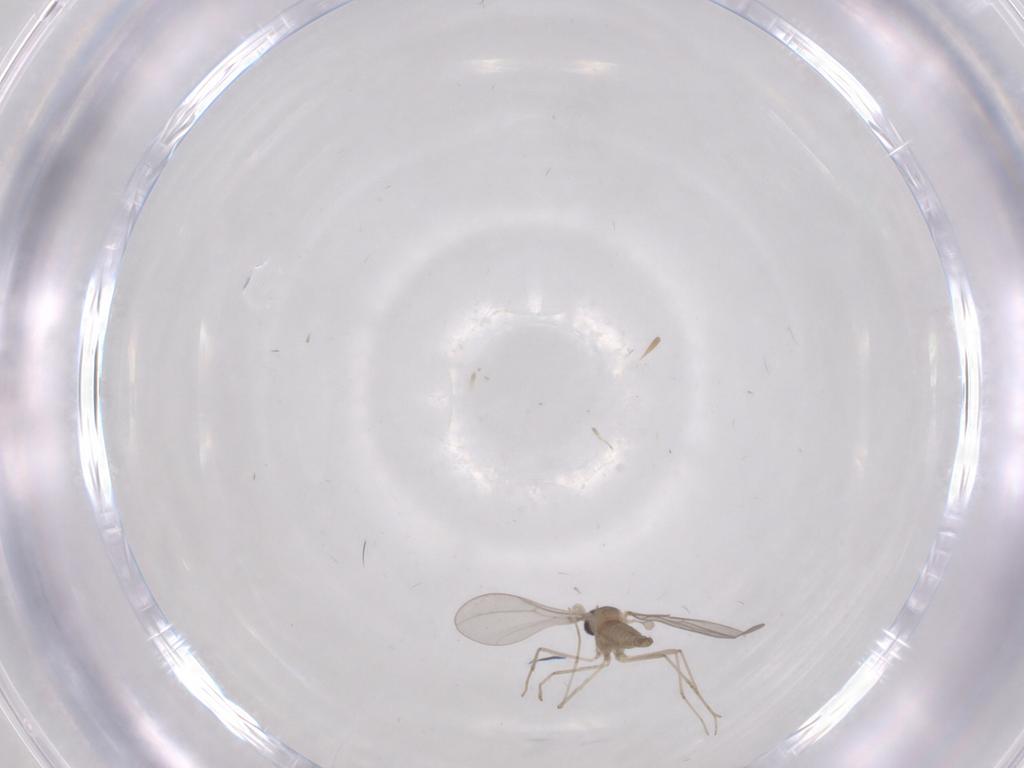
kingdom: Animalia
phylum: Arthropoda
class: Insecta
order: Diptera
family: Cecidomyiidae
